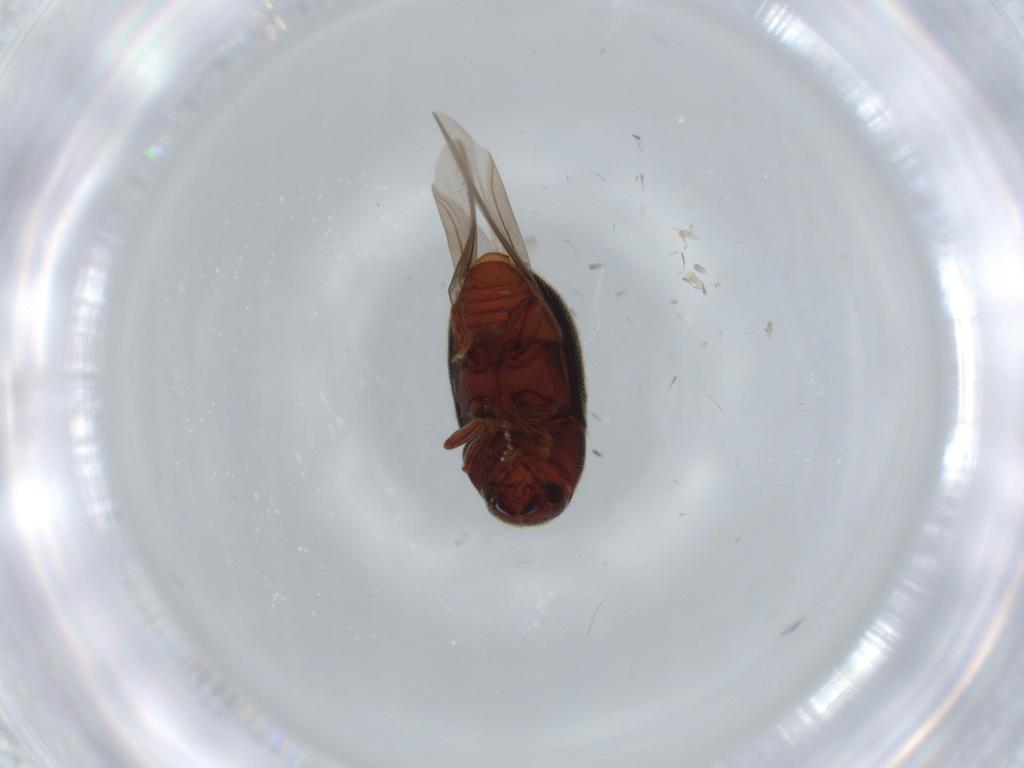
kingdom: Animalia
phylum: Arthropoda
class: Insecta
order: Coleoptera
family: Curculionidae
